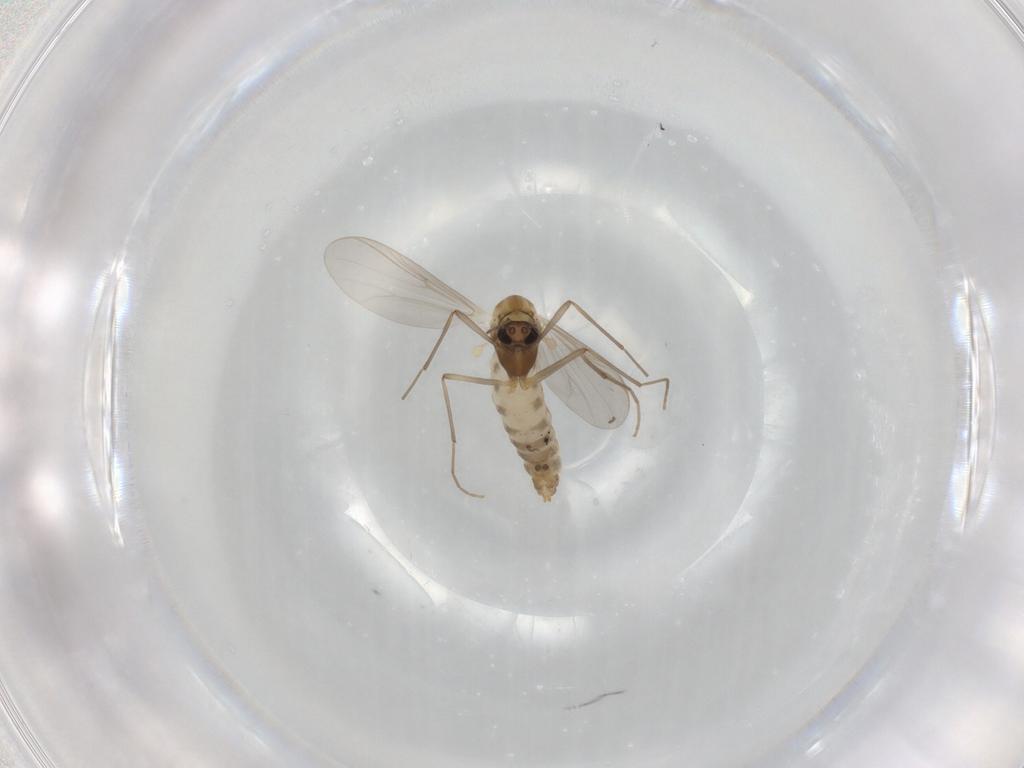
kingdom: Animalia
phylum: Arthropoda
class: Insecta
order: Diptera
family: Chironomidae
